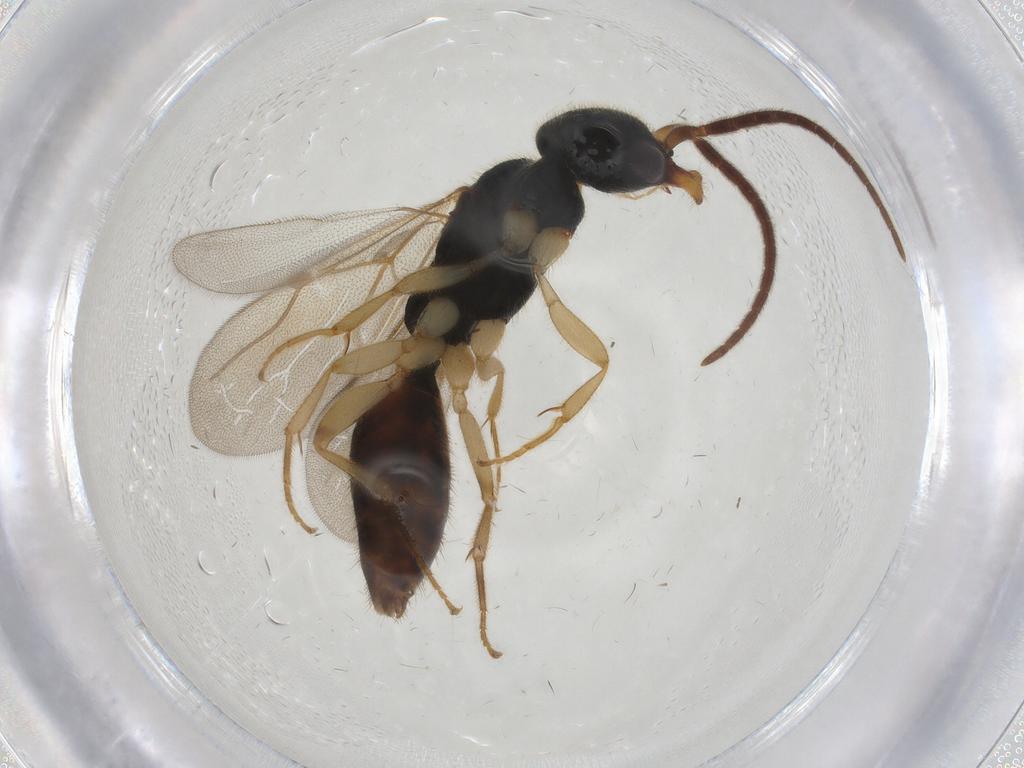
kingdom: Animalia
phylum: Arthropoda
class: Insecta
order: Hymenoptera
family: Bethylidae
